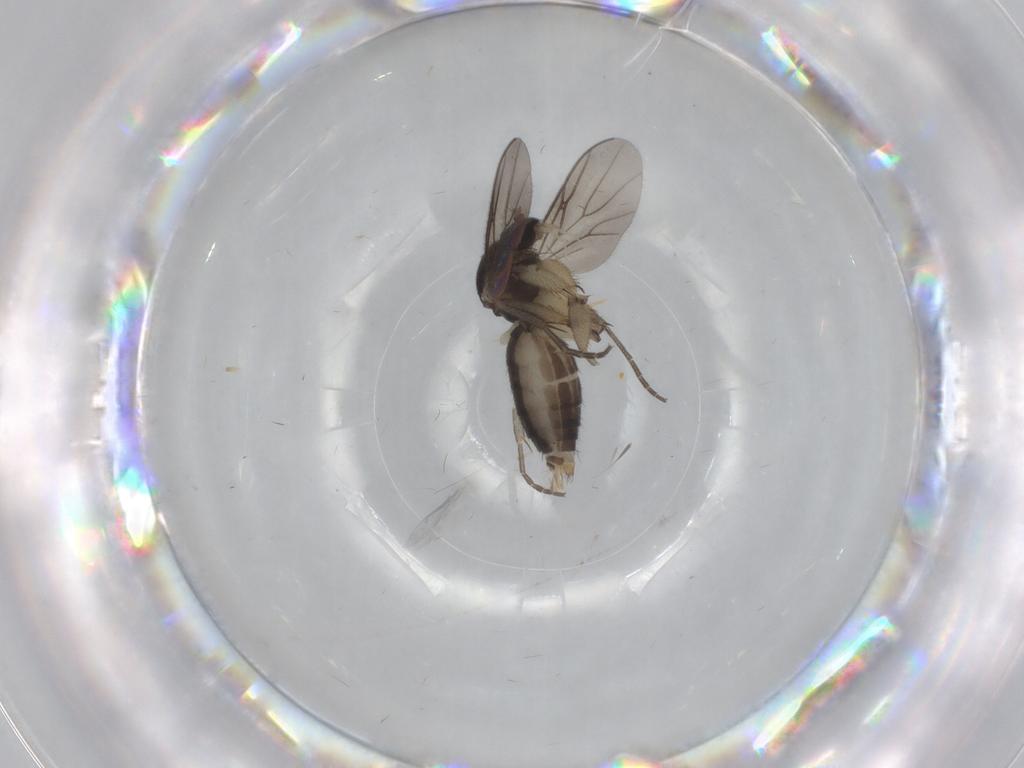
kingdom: Animalia
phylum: Arthropoda
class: Insecta
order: Diptera
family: Mycetophilidae
